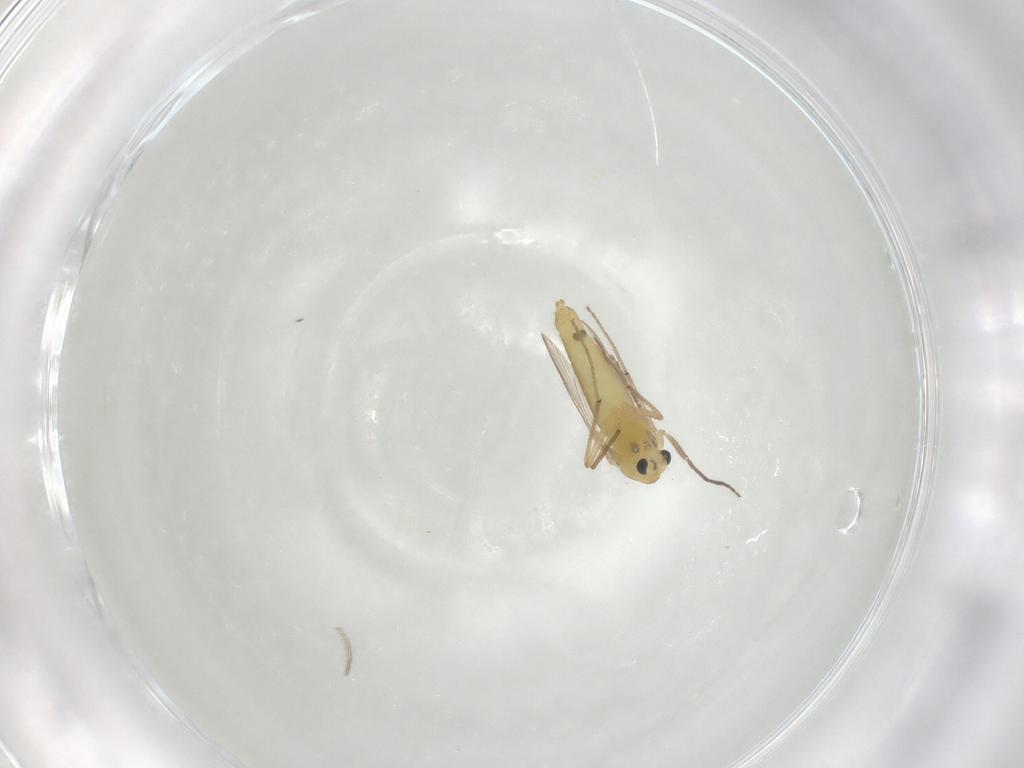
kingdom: Animalia
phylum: Arthropoda
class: Insecta
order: Diptera
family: Chironomidae
